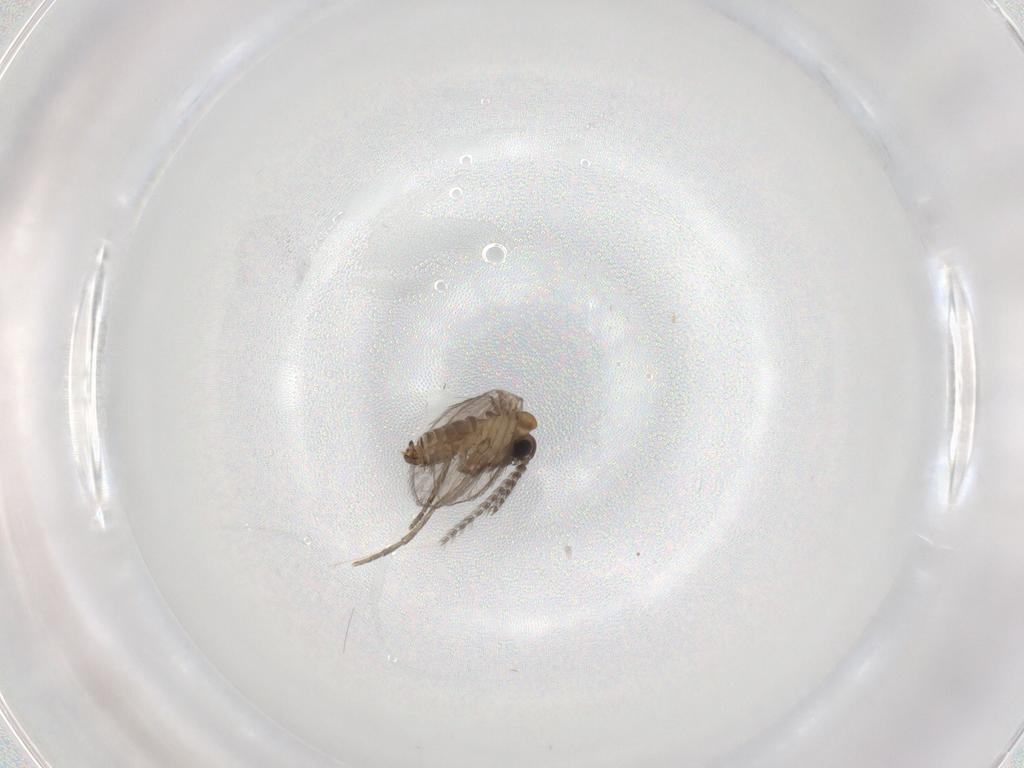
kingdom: Animalia
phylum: Arthropoda
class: Insecta
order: Diptera
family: Psychodidae
